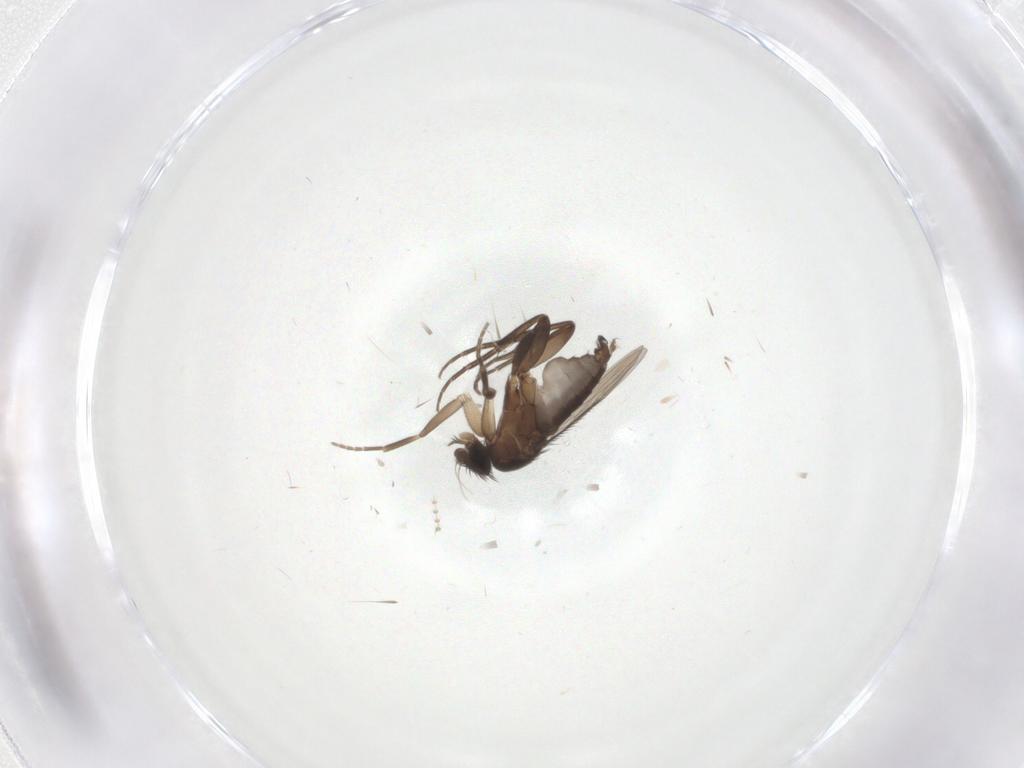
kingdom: Animalia
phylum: Arthropoda
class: Insecta
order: Diptera
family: Phoridae
